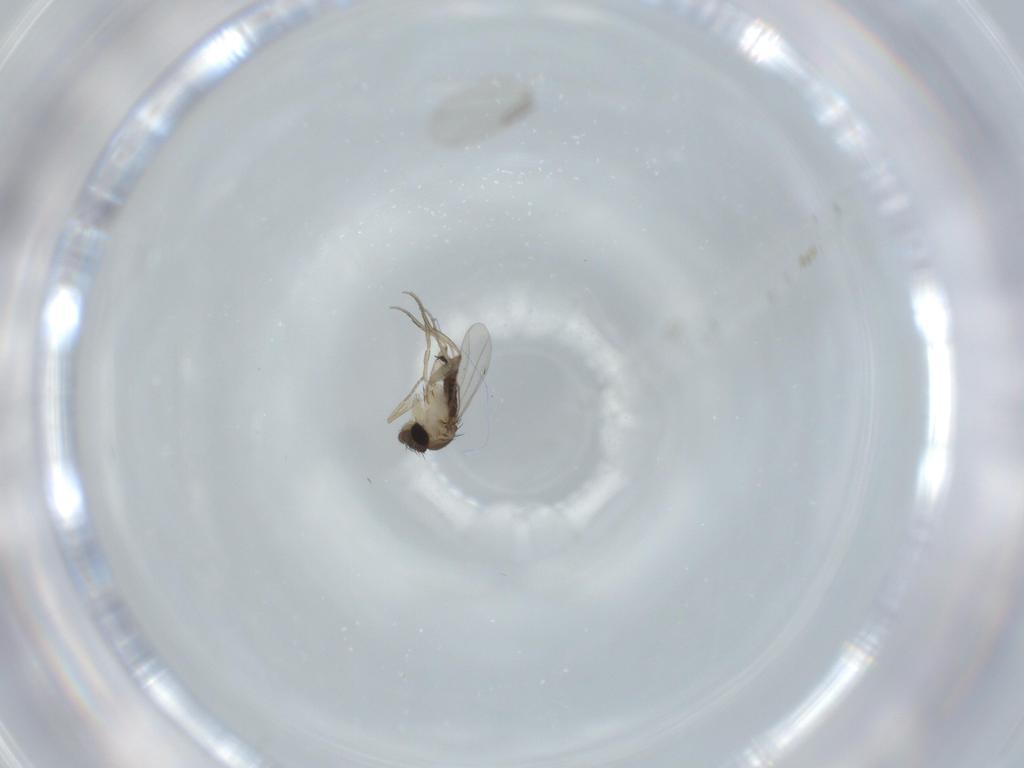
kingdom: Animalia
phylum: Arthropoda
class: Insecta
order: Diptera
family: Phoridae
